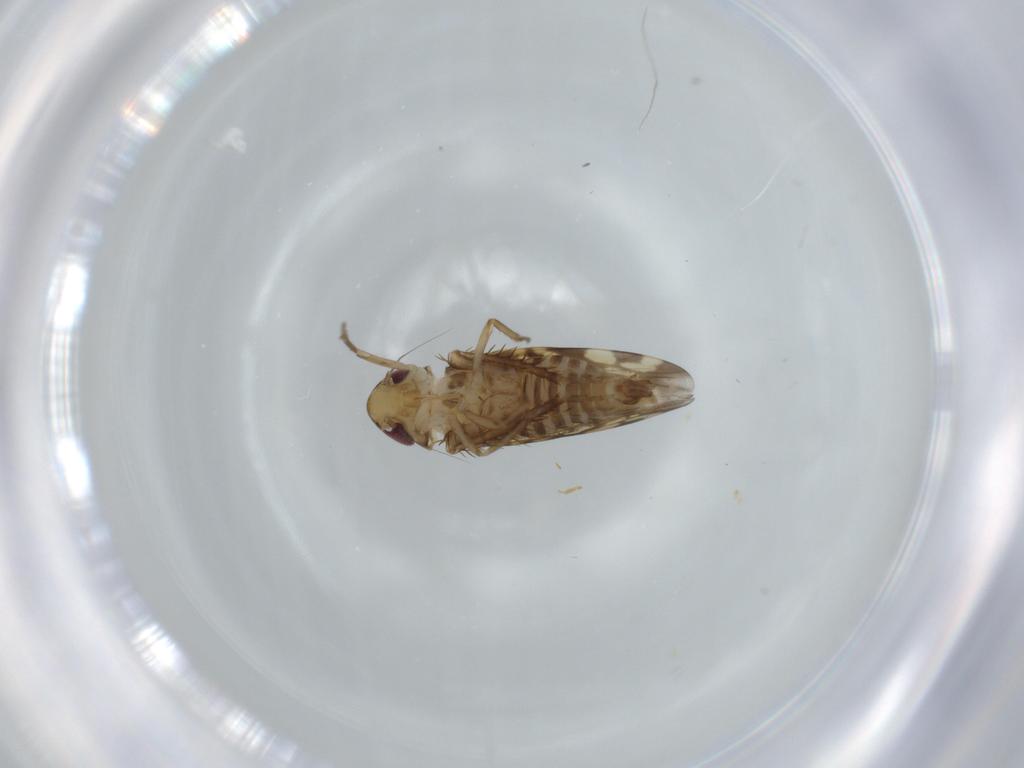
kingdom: Animalia
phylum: Arthropoda
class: Insecta
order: Hemiptera
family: Cicadellidae
